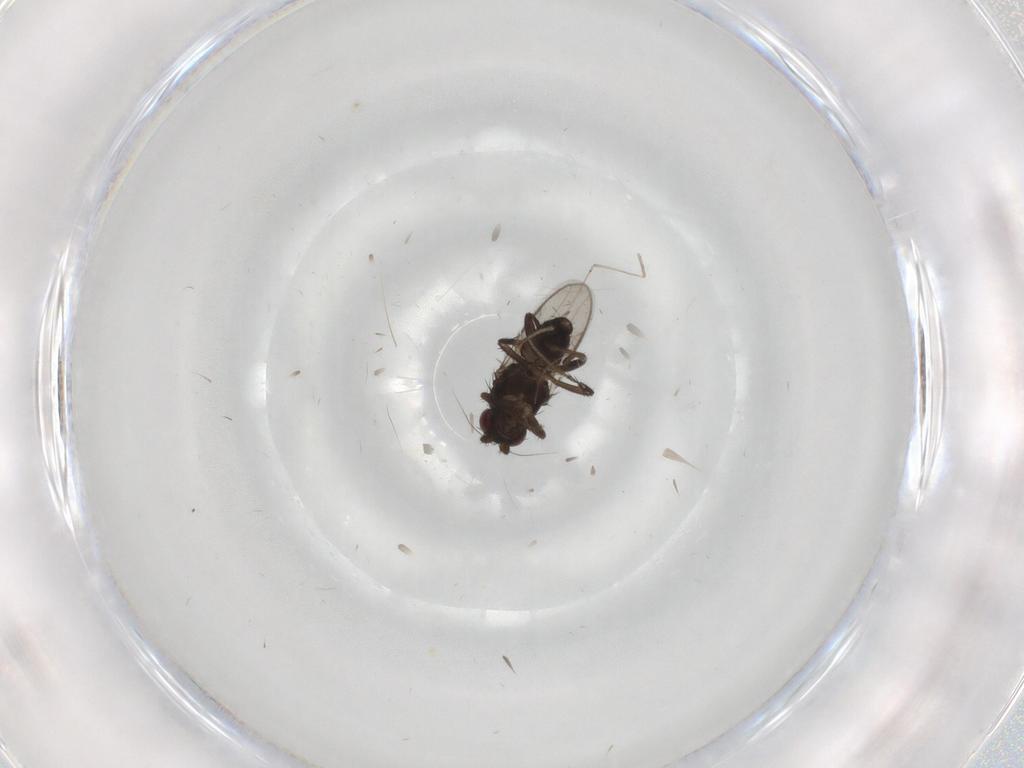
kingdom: Animalia
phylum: Arthropoda
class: Insecta
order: Diptera
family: Sphaeroceridae
